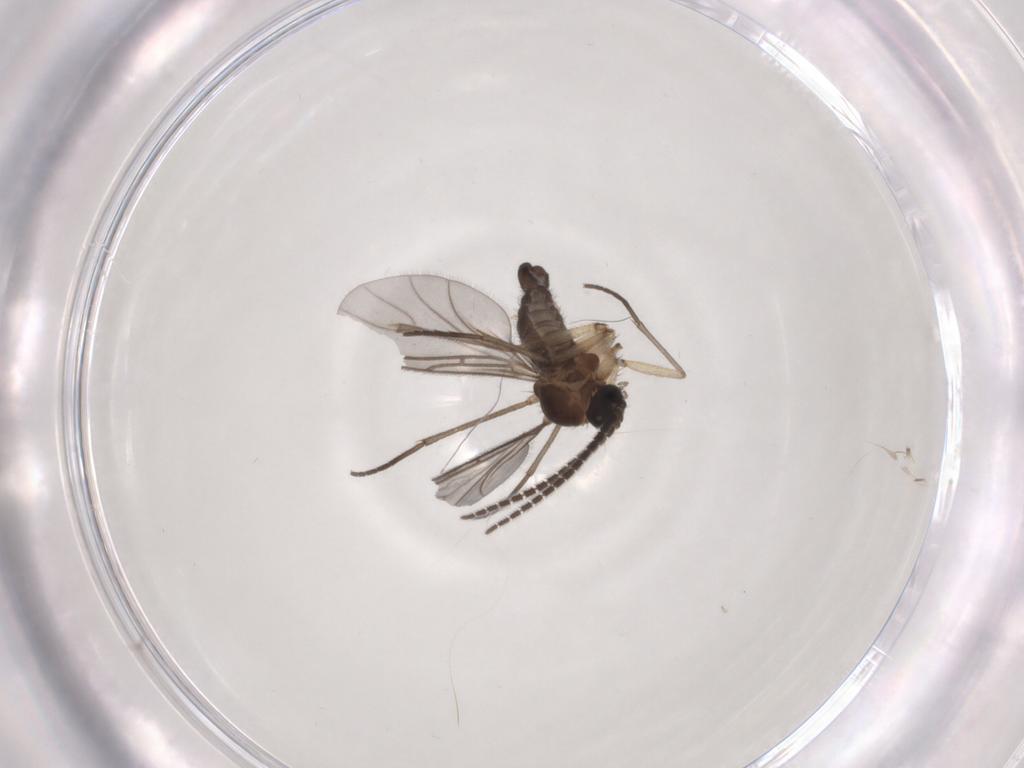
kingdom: Animalia
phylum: Arthropoda
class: Insecta
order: Diptera
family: Sciaridae
